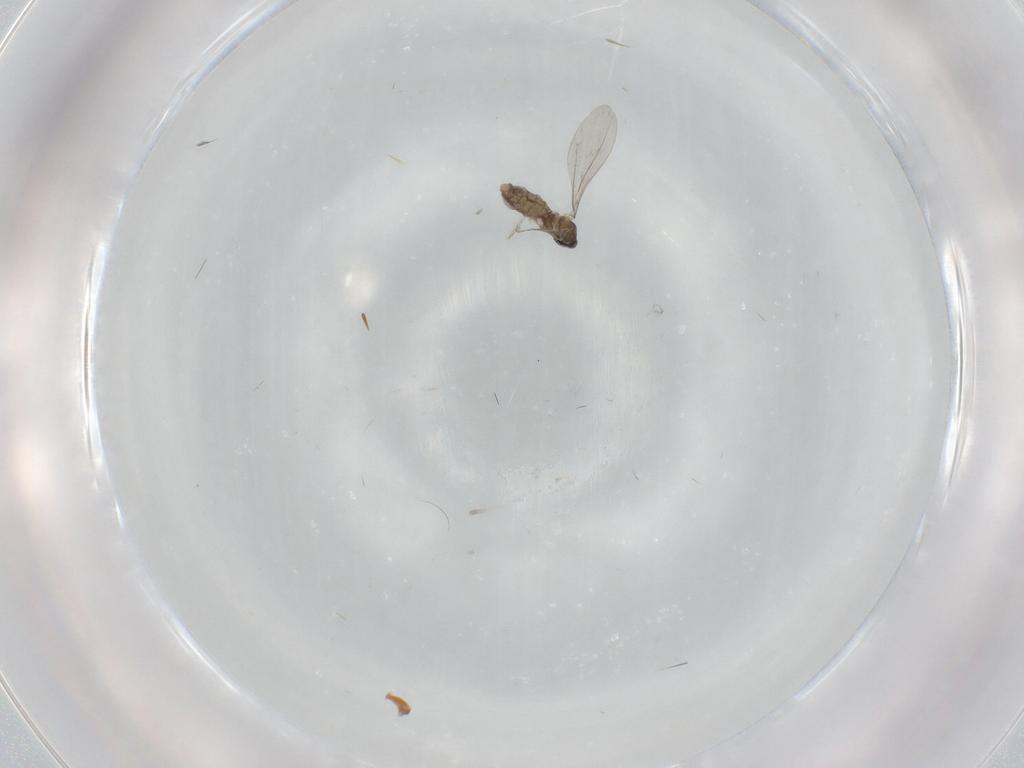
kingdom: Animalia
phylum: Arthropoda
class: Insecta
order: Diptera
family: Cecidomyiidae
